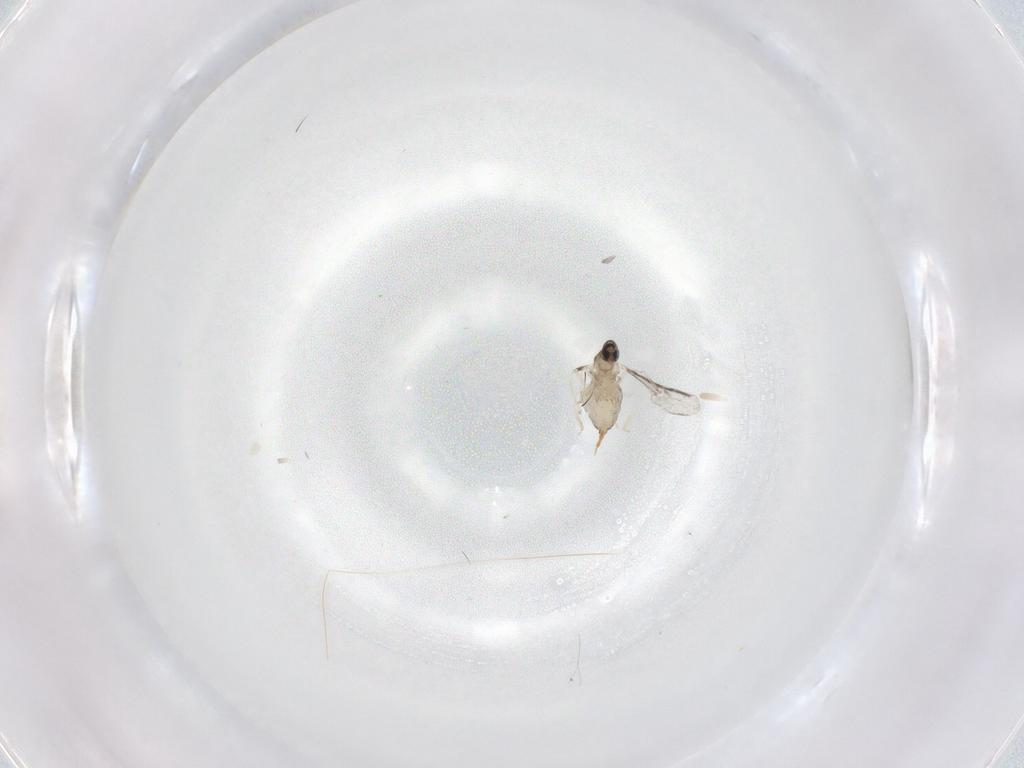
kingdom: Animalia
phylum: Arthropoda
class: Insecta
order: Diptera
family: Cecidomyiidae
